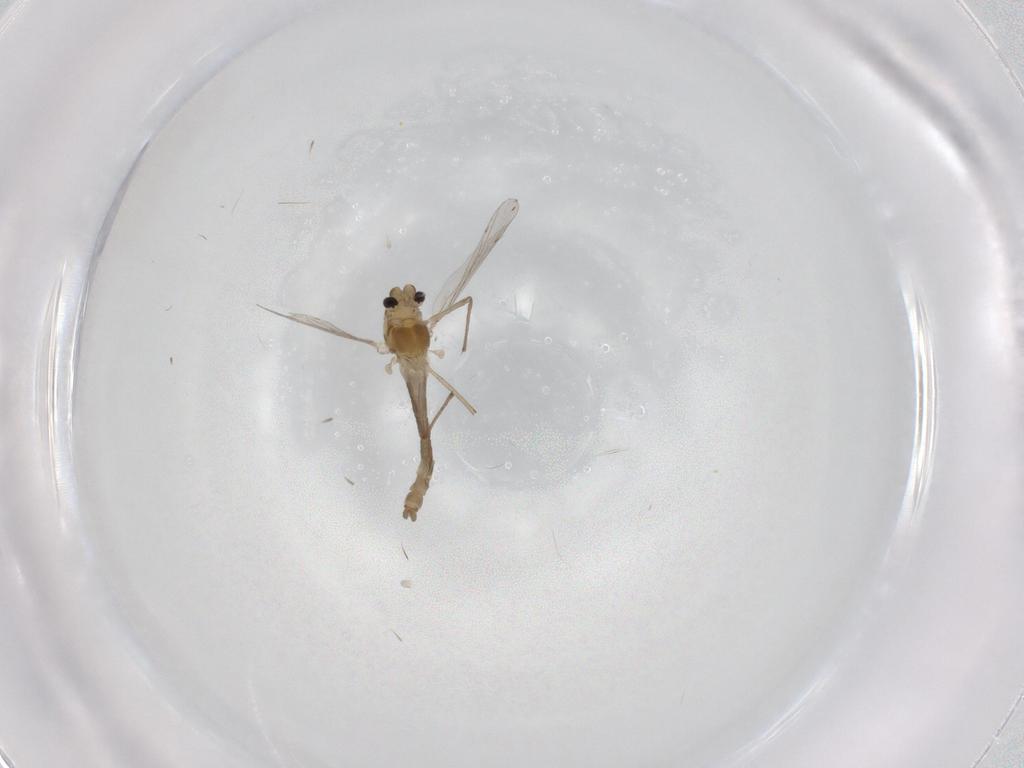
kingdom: Animalia
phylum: Arthropoda
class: Insecta
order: Diptera
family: Chironomidae
